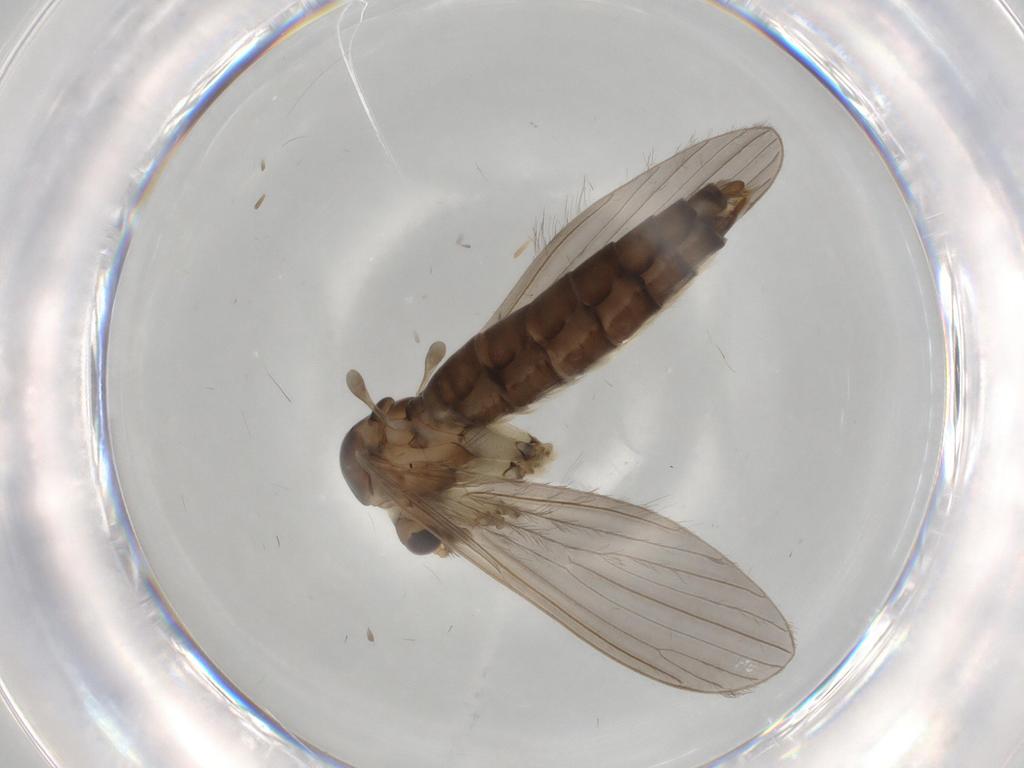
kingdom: Animalia
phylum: Arthropoda
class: Insecta
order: Diptera
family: Psychodidae
